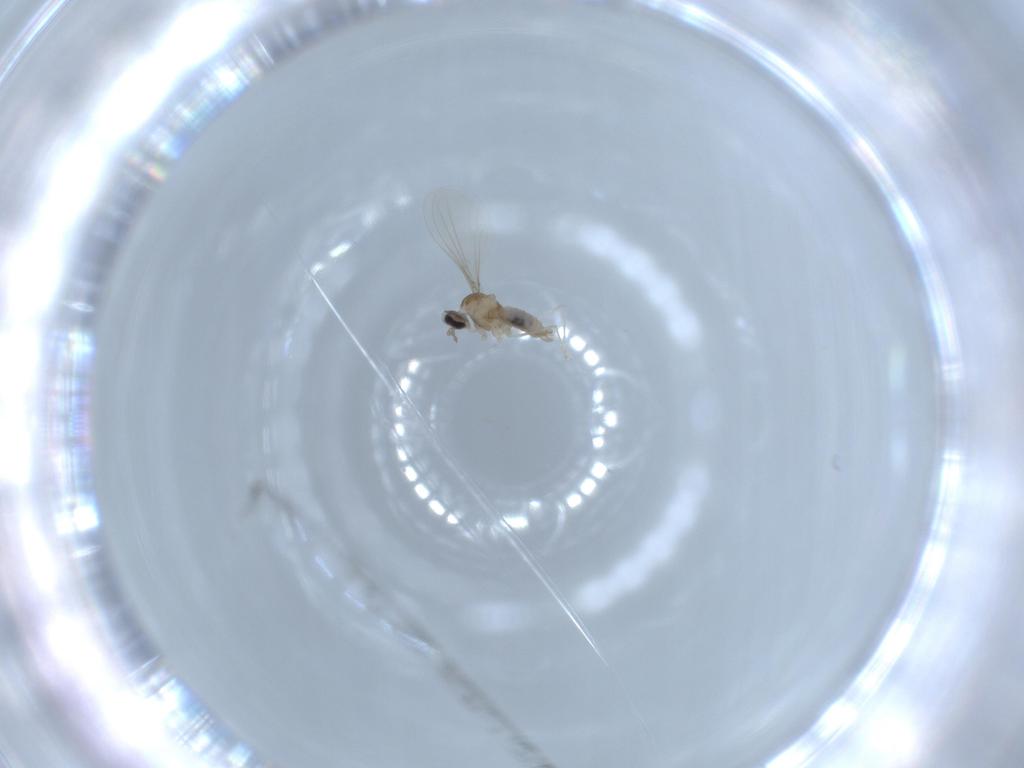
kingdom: Animalia
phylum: Arthropoda
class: Insecta
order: Diptera
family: Cecidomyiidae
